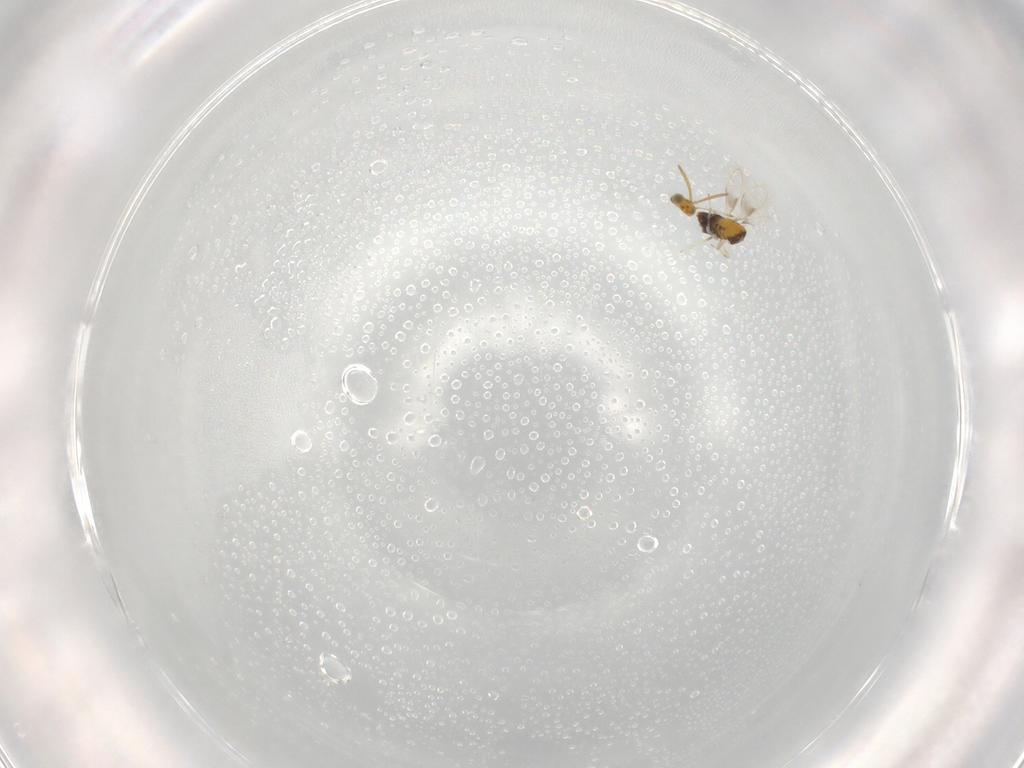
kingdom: Animalia
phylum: Arthropoda
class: Insecta
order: Hymenoptera
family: Aphelinidae
